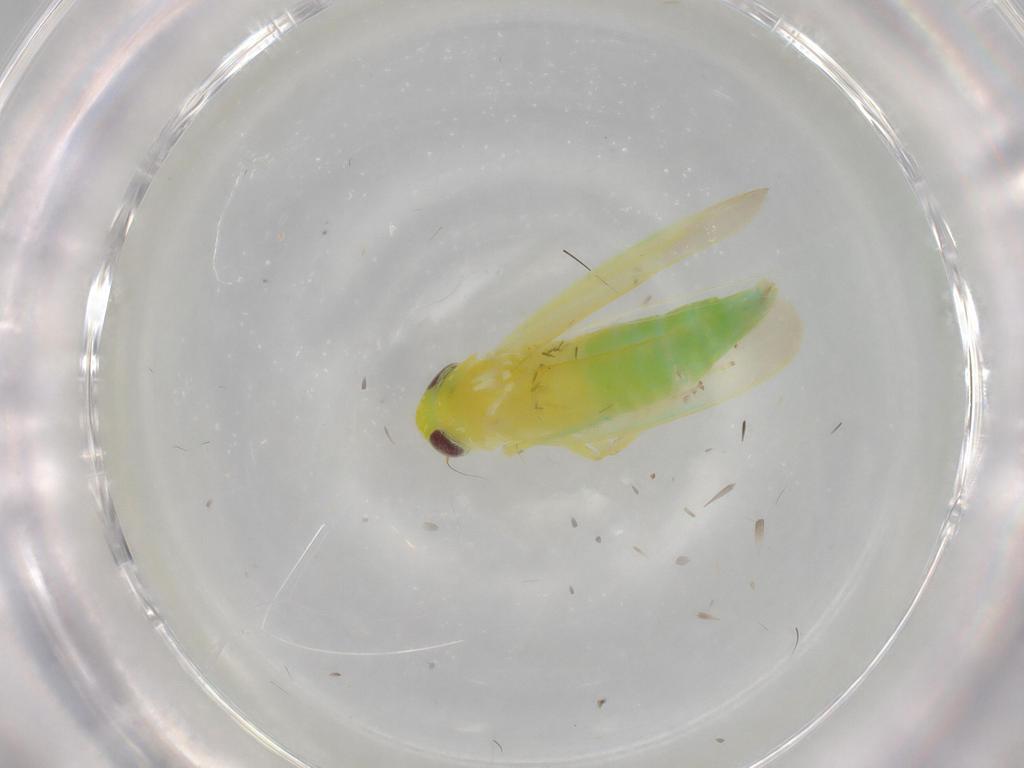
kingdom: Animalia
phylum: Arthropoda
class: Insecta
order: Hemiptera
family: Cicadellidae
